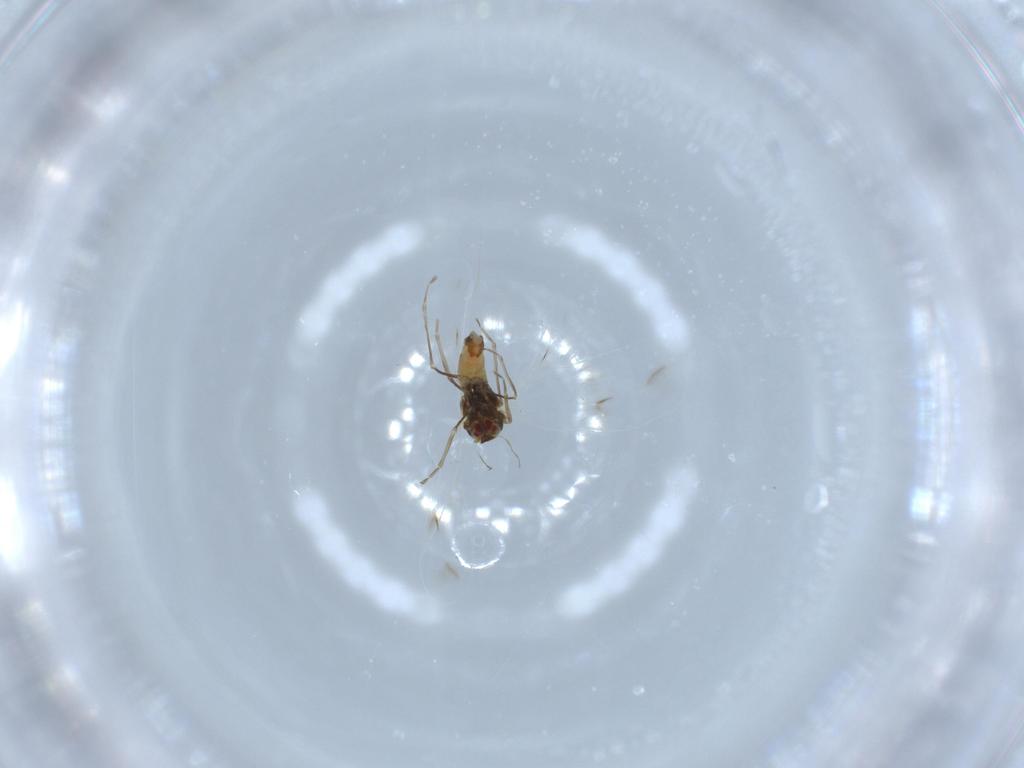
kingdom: Animalia
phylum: Arthropoda
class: Insecta
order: Hemiptera
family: Aleyrodidae
